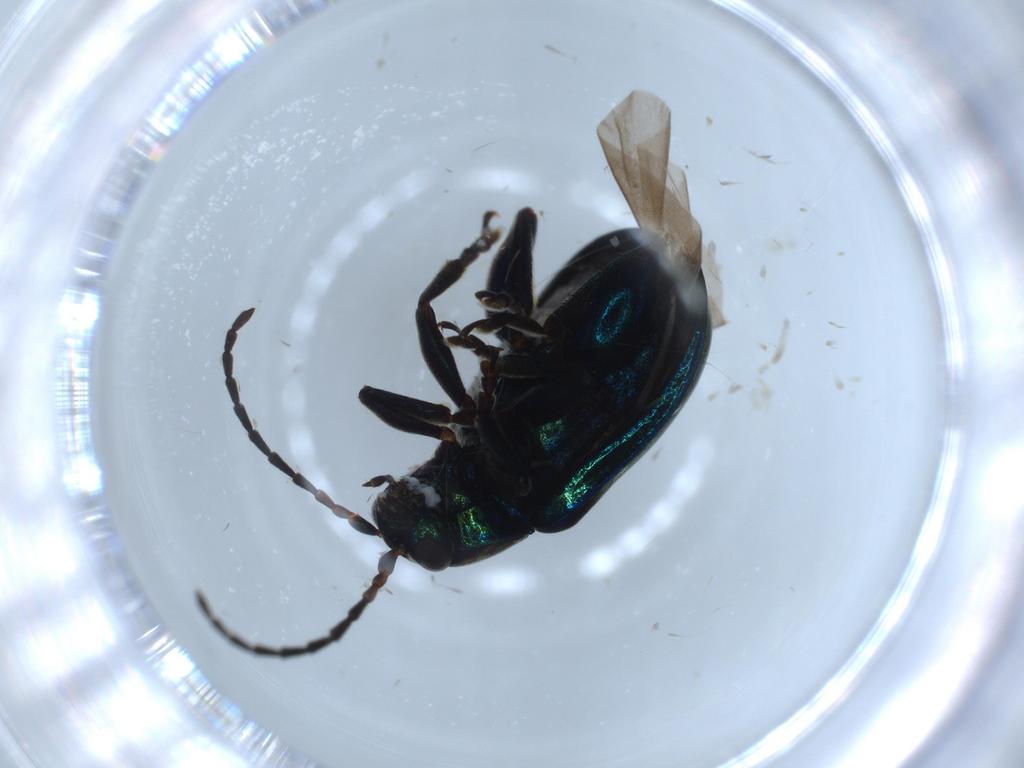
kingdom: Animalia
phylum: Arthropoda
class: Insecta
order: Coleoptera
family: Chrysomelidae
